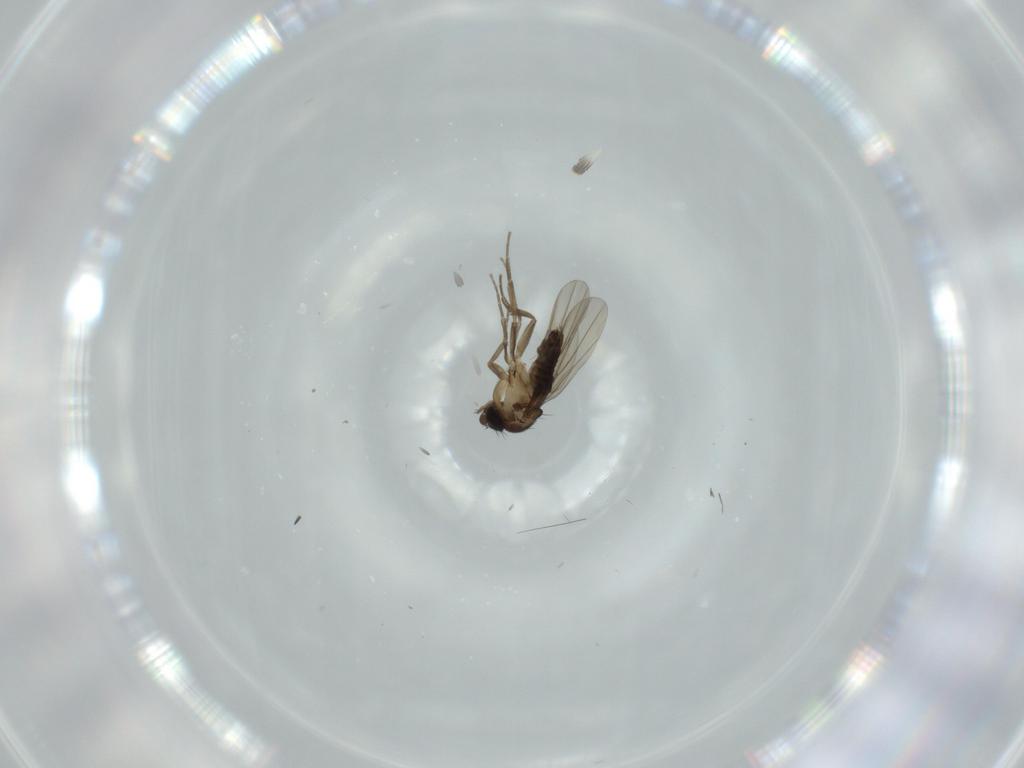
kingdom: Animalia
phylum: Arthropoda
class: Insecta
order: Diptera
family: Phoridae
